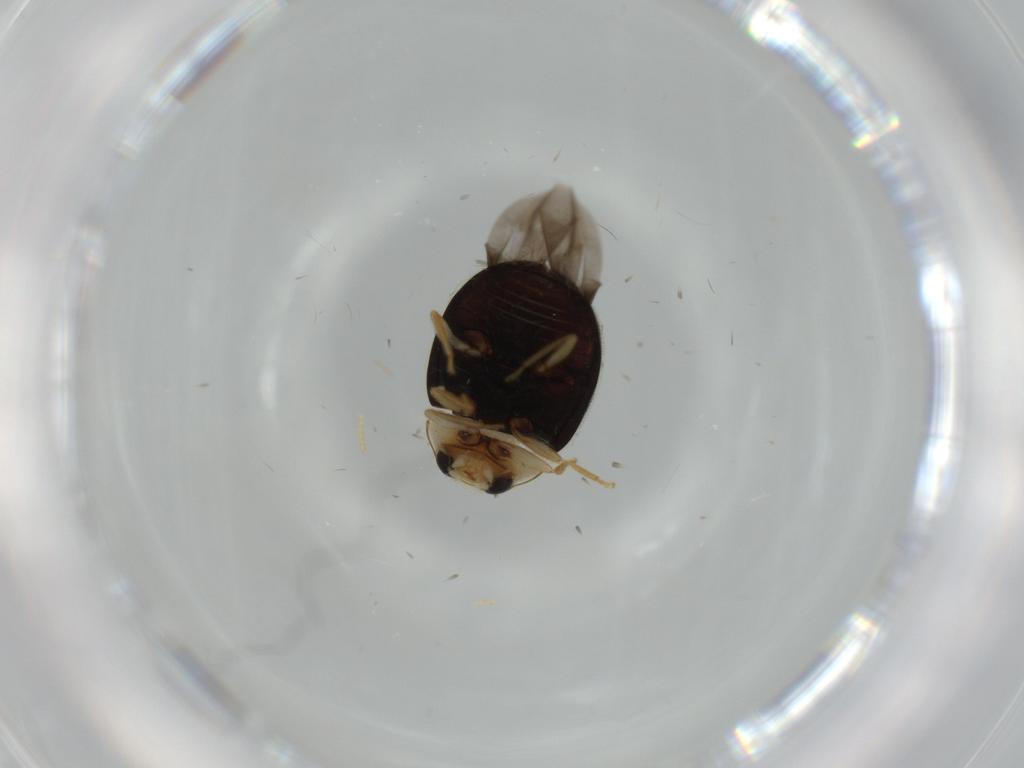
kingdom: Animalia
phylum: Arthropoda
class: Insecta
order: Coleoptera
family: Coccinellidae
